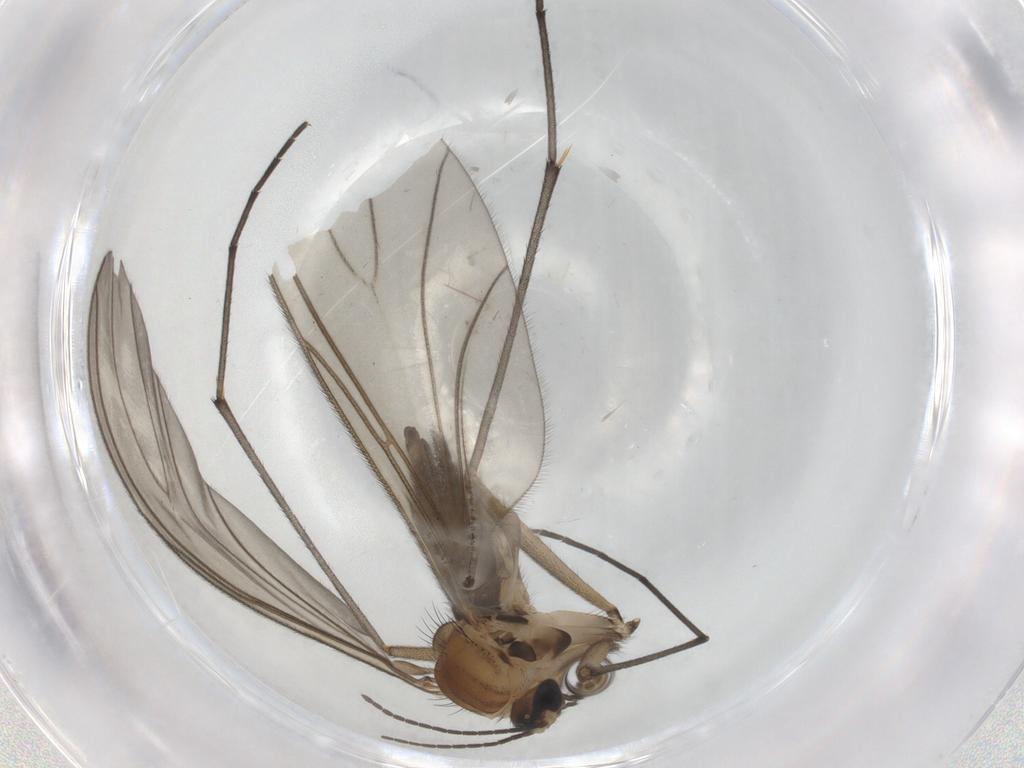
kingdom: Animalia
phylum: Arthropoda
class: Insecta
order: Diptera
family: Sciaridae
